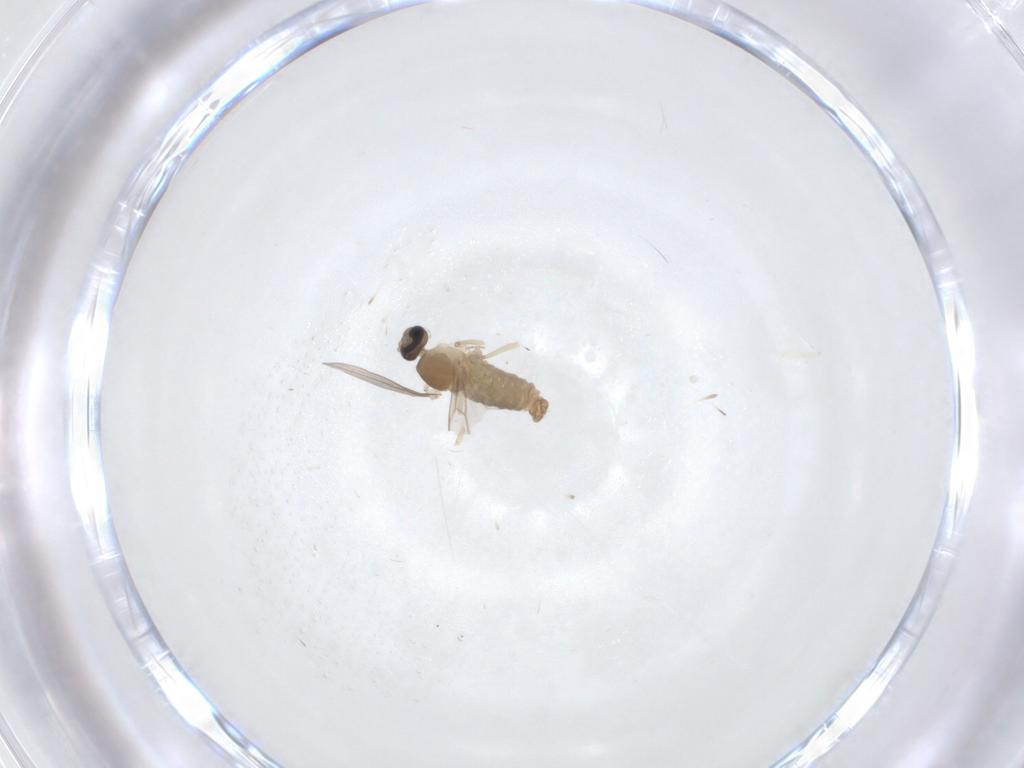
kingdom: Animalia
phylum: Arthropoda
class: Insecta
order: Diptera
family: Cecidomyiidae
